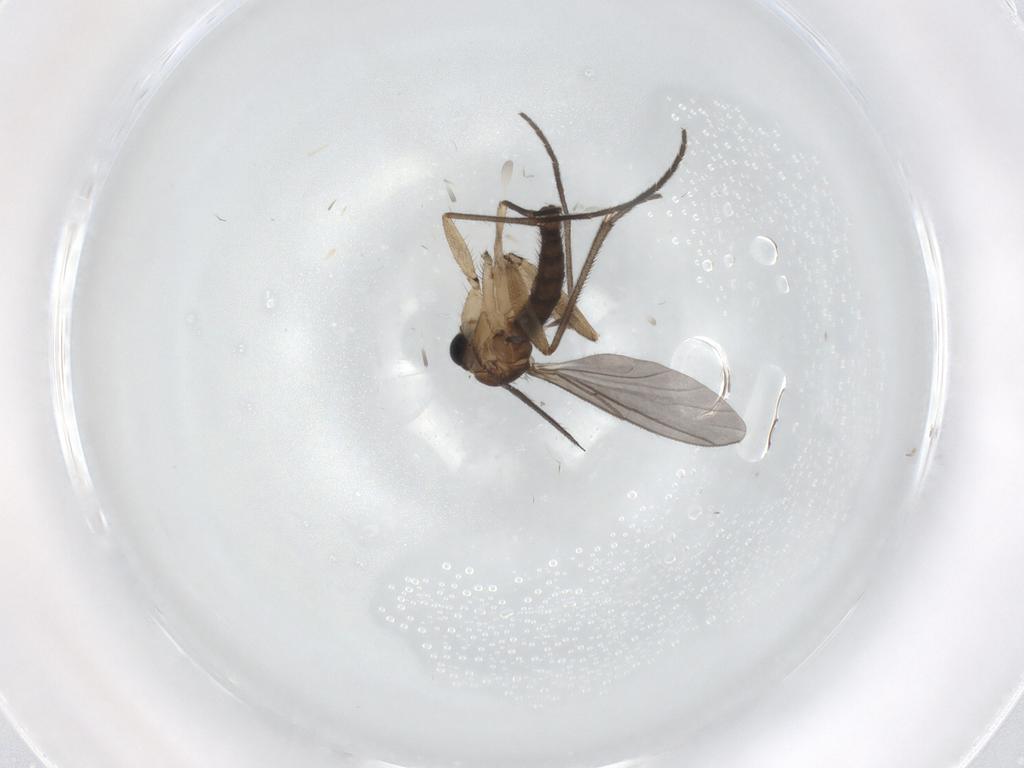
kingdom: Animalia
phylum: Arthropoda
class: Insecta
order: Diptera
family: Sciaridae
